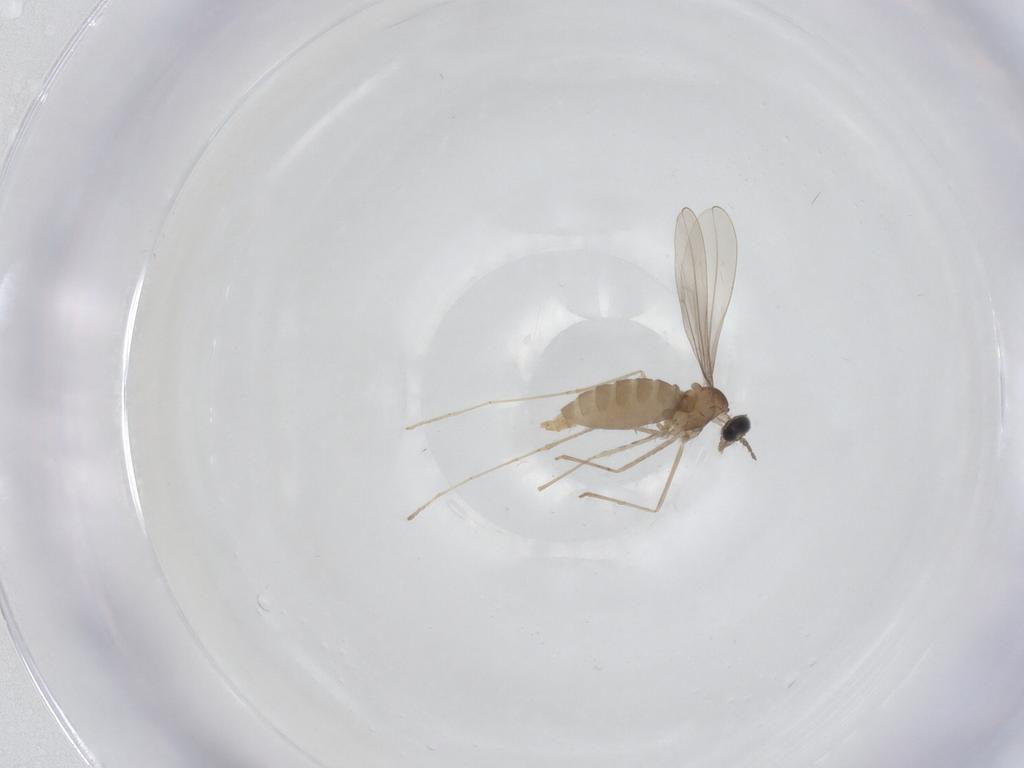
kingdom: Animalia
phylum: Arthropoda
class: Insecta
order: Diptera
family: Cecidomyiidae
